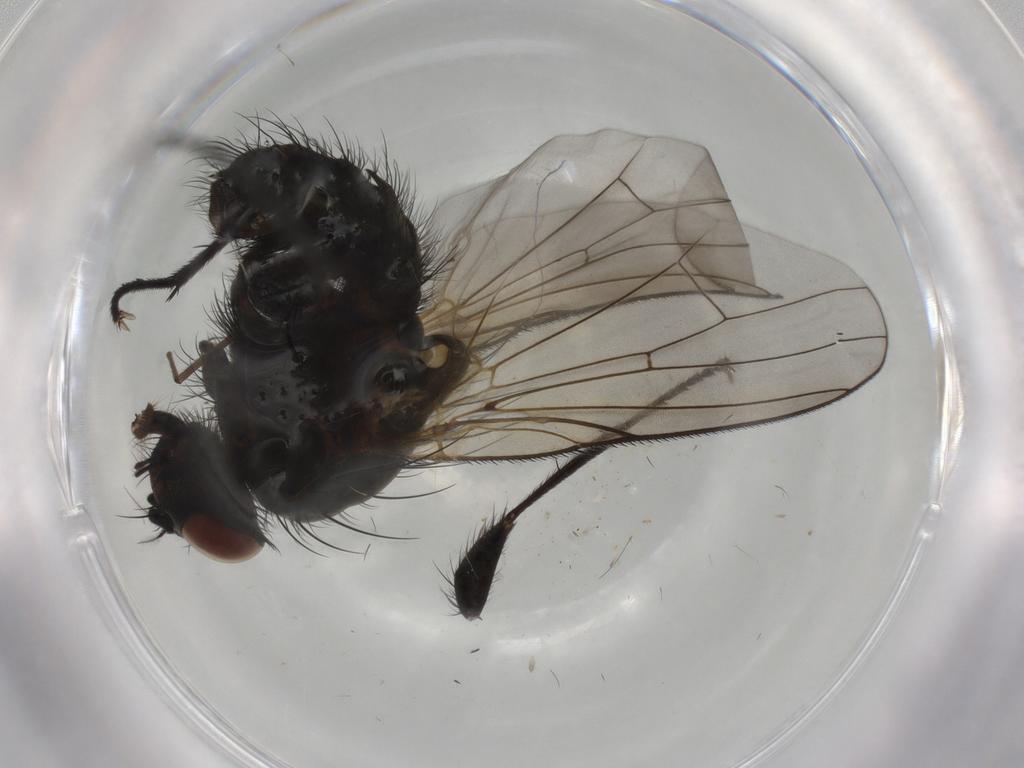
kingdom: Animalia
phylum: Arthropoda
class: Insecta
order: Diptera
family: Anthomyiidae
